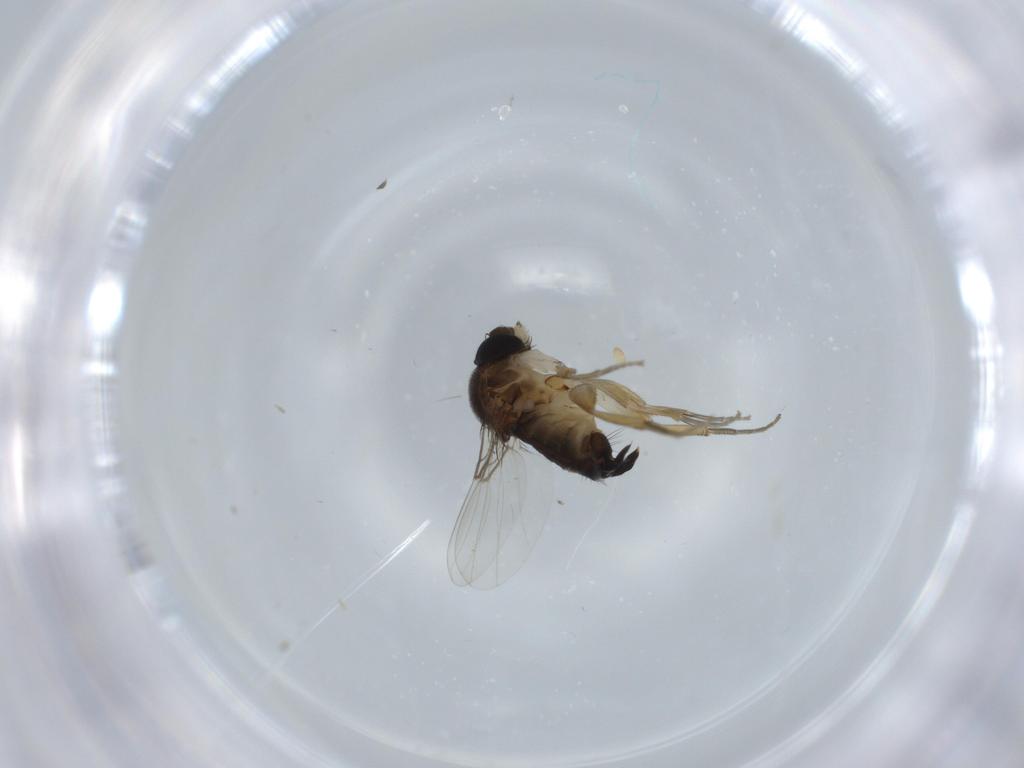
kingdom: Animalia
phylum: Arthropoda
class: Insecta
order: Diptera
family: Phoridae
